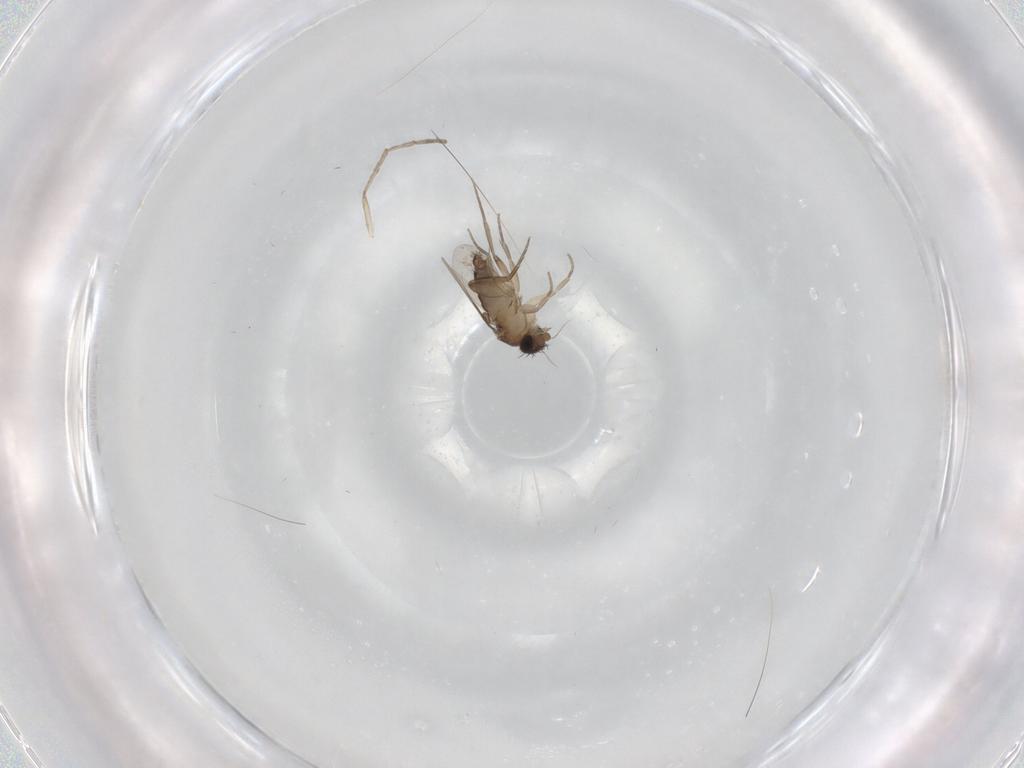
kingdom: Animalia
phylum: Arthropoda
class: Insecta
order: Diptera
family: Phoridae
